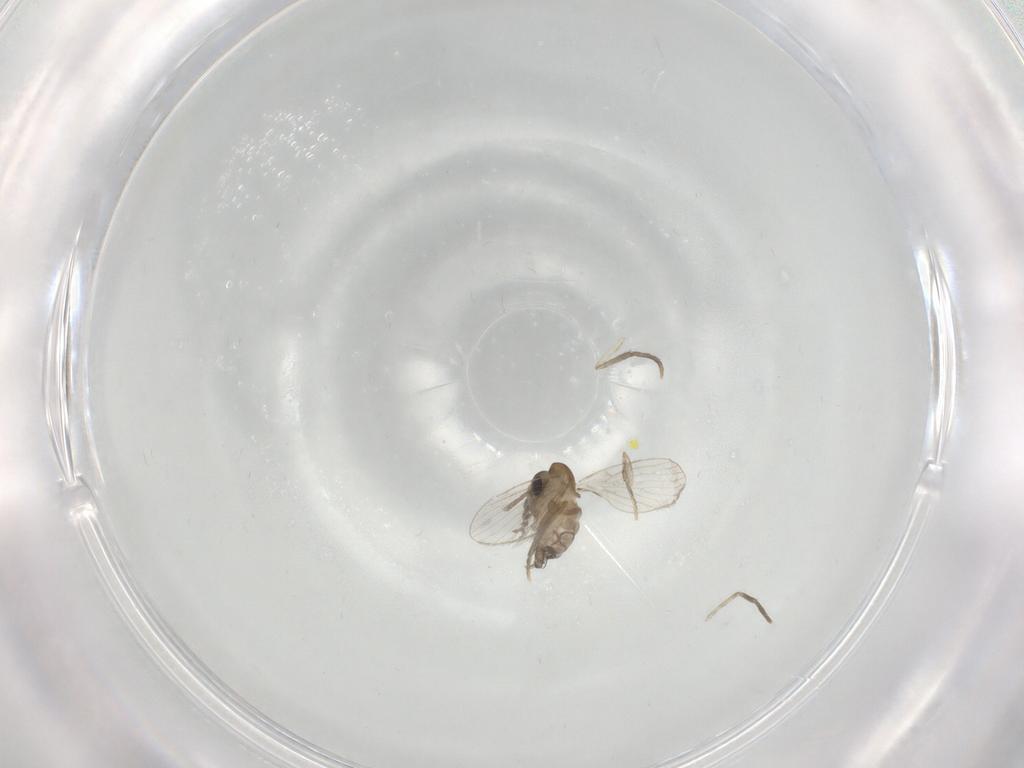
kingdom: Animalia
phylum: Arthropoda
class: Insecta
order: Diptera
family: Psychodidae
